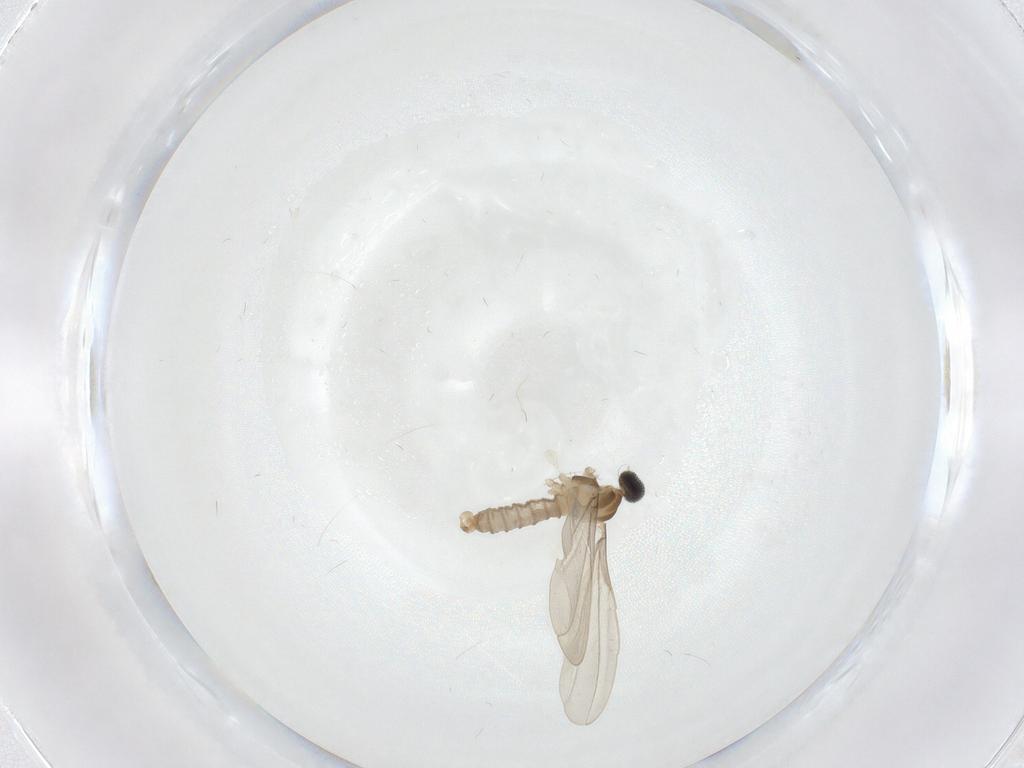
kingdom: Animalia
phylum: Arthropoda
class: Insecta
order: Diptera
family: Cecidomyiidae
